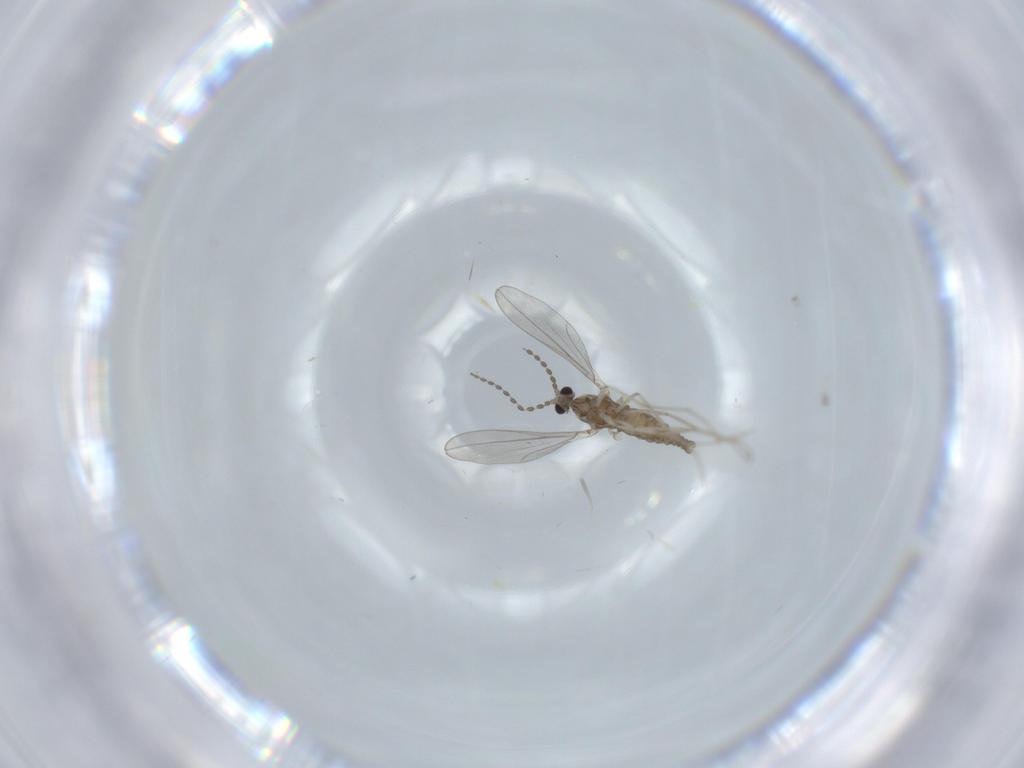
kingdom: Animalia
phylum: Arthropoda
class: Insecta
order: Diptera
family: Cecidomyiidae
